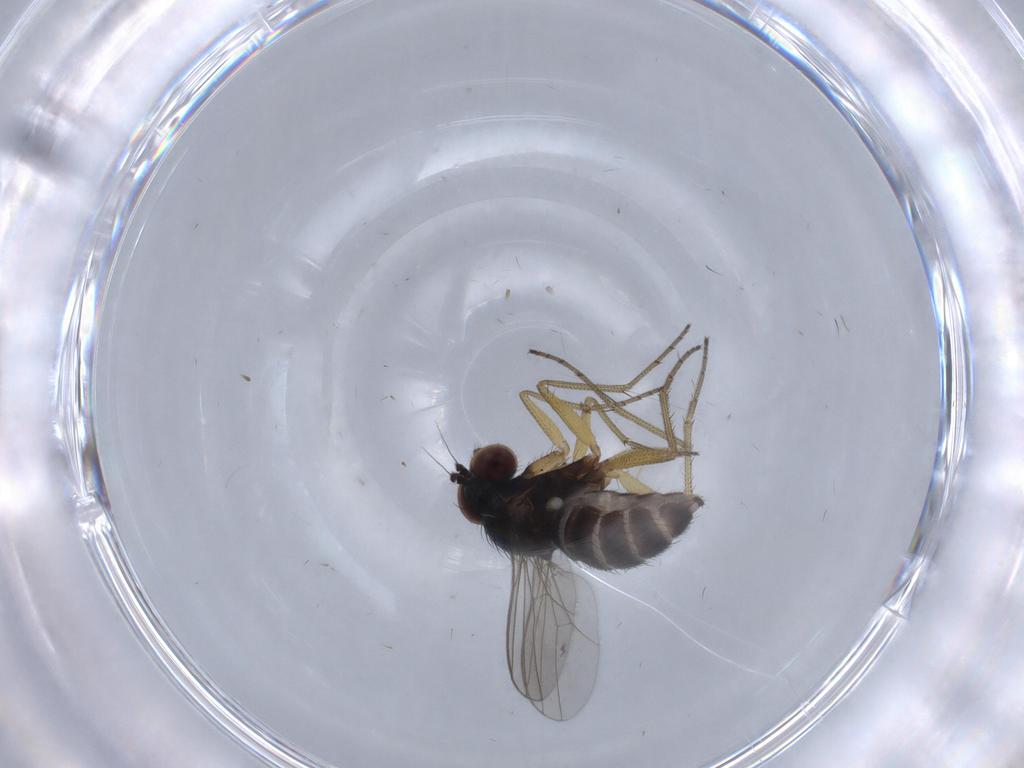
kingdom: Animalia
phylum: Arthropoda
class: Insecta
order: Diptera
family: Dolichopodidae
